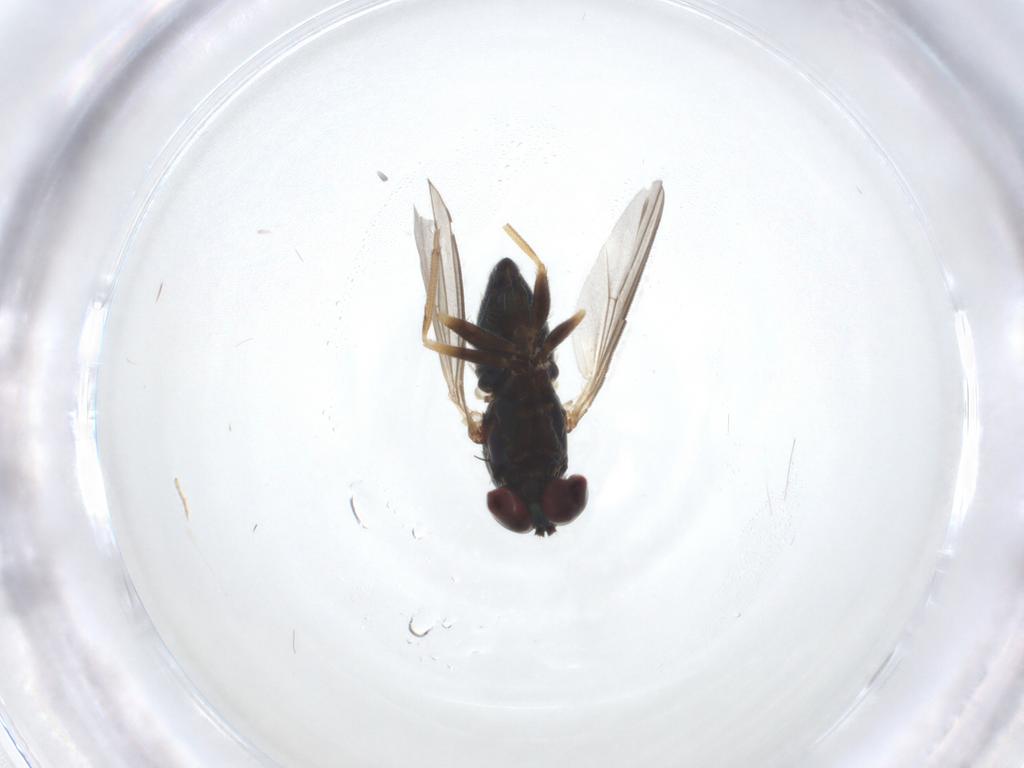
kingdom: Animalia
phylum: Arthropoda
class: Insecta
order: Diptera
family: Dolichopodidae
